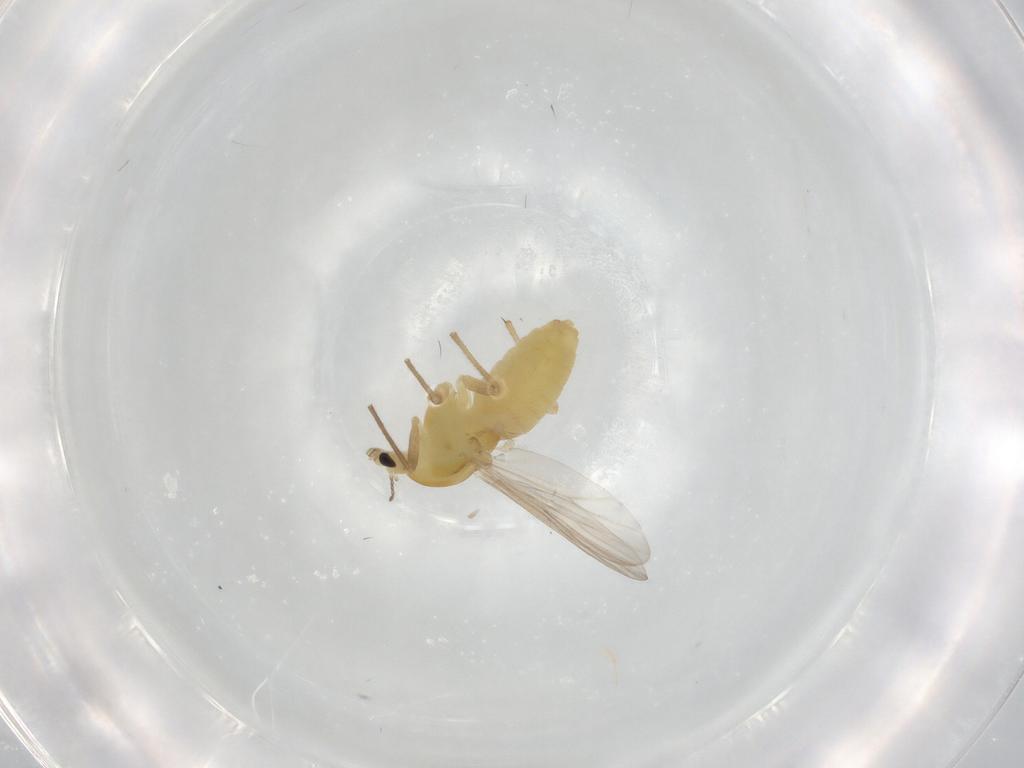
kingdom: Animalia
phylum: Arthropoda
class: Insecta
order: Diptera
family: Chironomidae
